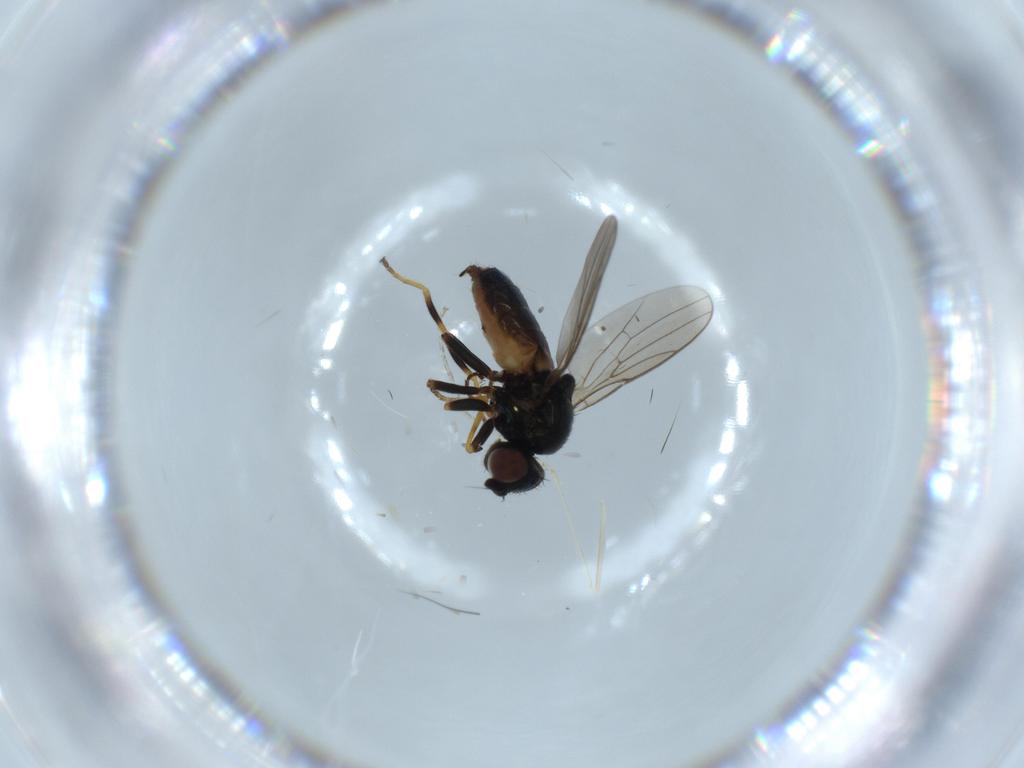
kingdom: Animalia
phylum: Arthropoda
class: Insecta
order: Diptera
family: Chloropidae
